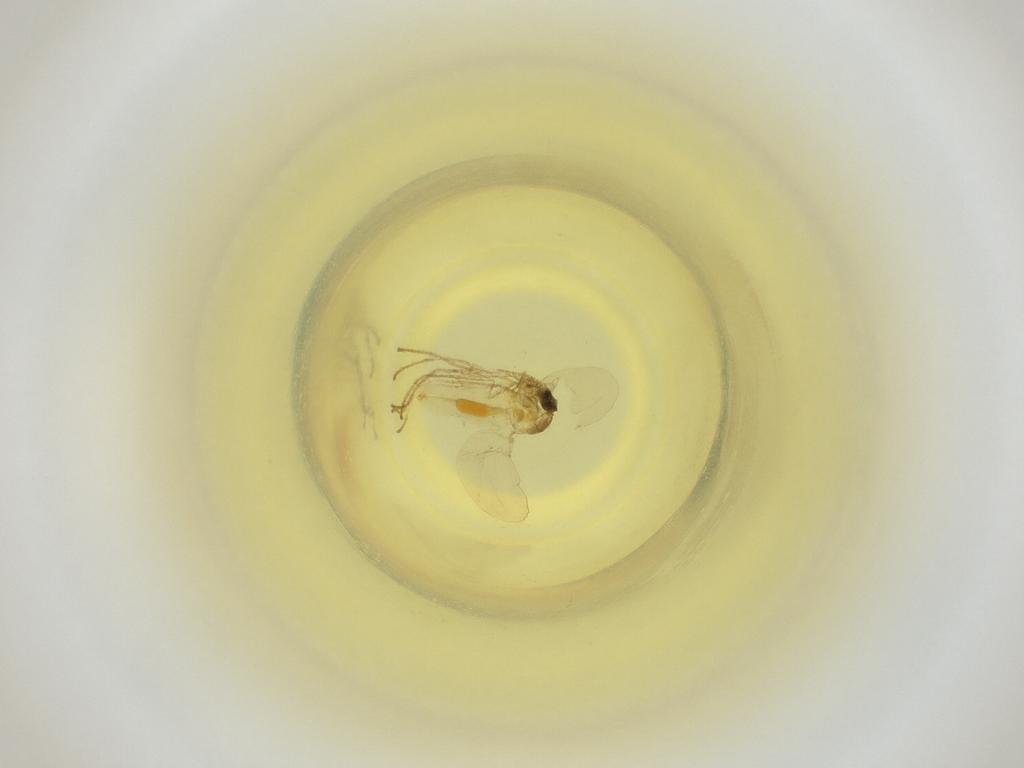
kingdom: Animalia
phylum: Arthropoda
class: Insecta
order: Diptera
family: Cecidomyiidae
